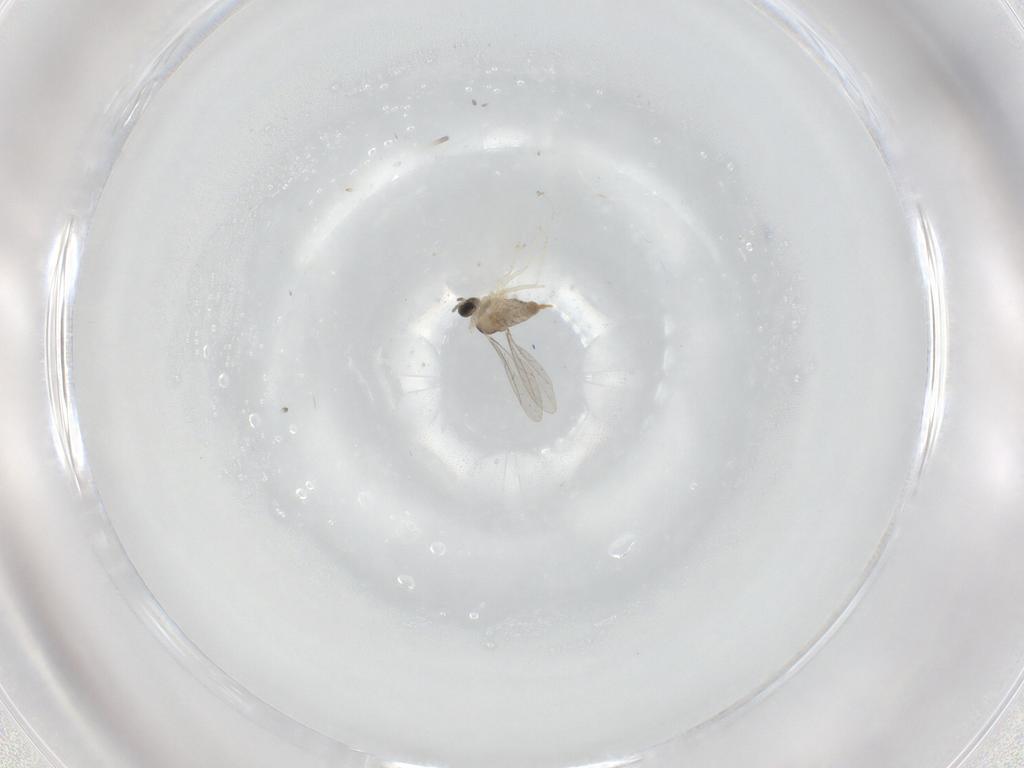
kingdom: Animalia
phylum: Arthropoda
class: Insecta
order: Diptera
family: Cecidomyiidae
